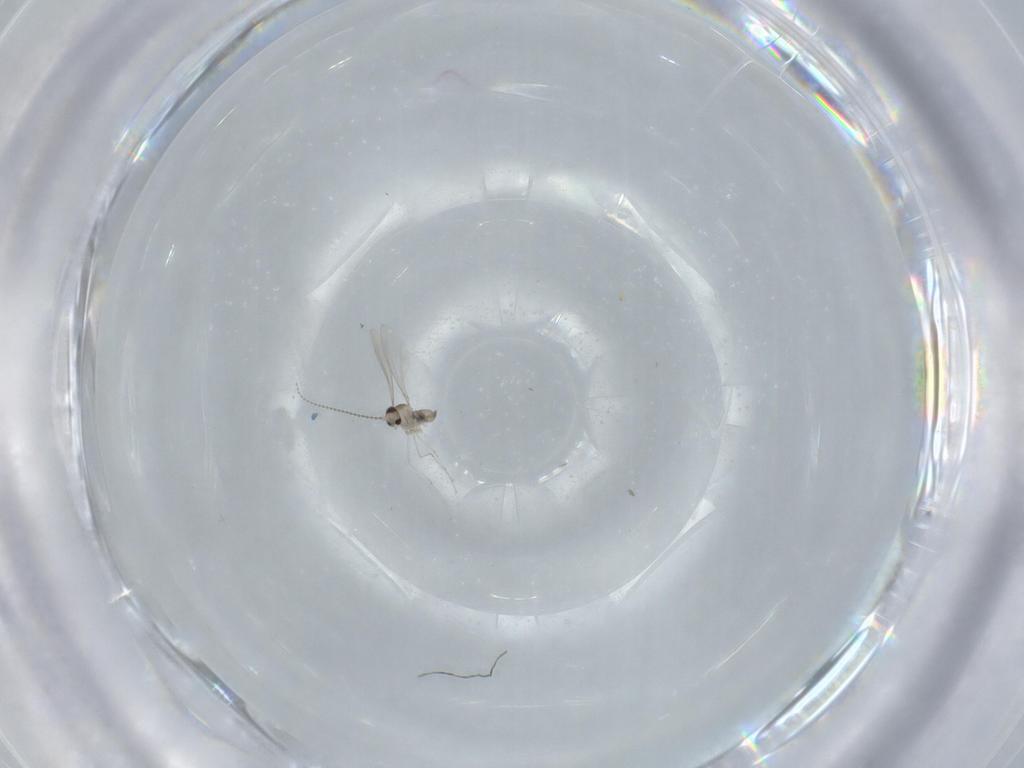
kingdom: Animalia
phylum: Arthropoda
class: Insecta
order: Diptera
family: Cecidomyiidae
